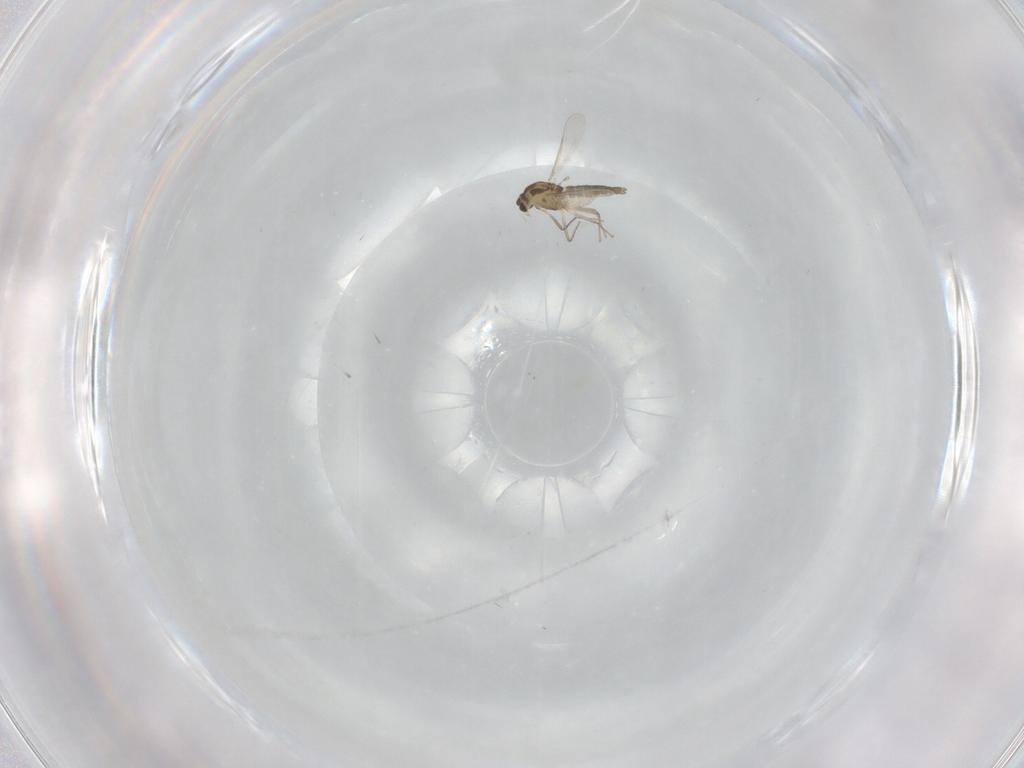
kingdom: Animalia
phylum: Arthropoda
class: Insecta
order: Diptera
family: Chironomidae
